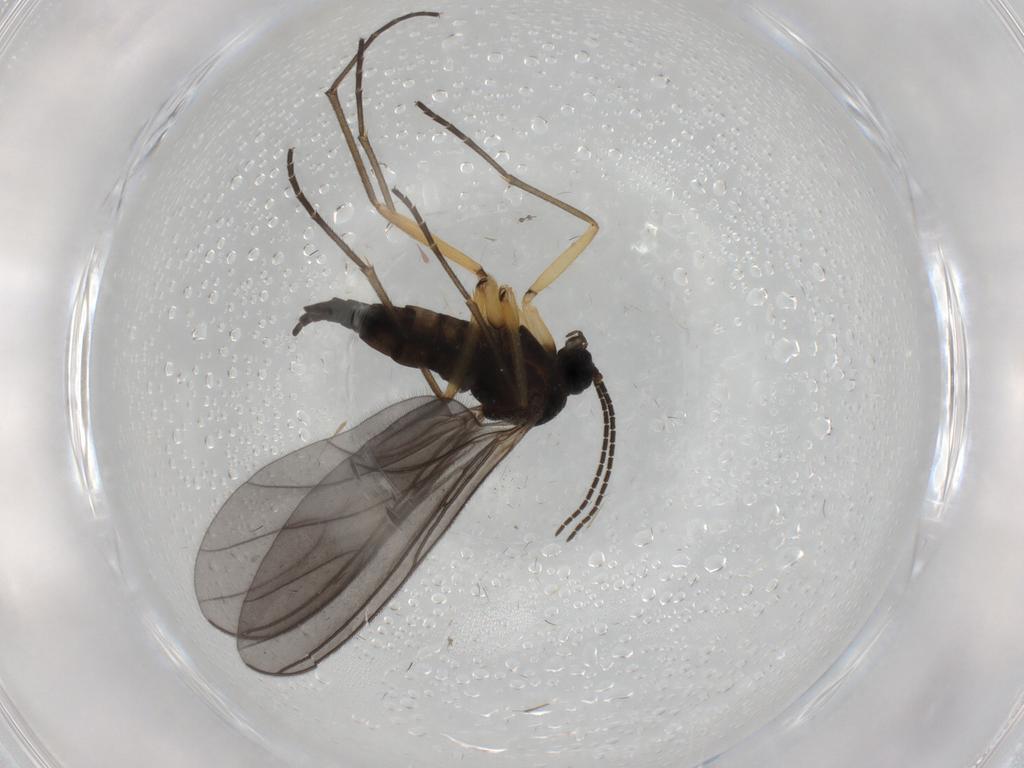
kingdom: Animalia
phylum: Arthropoda
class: Insecta
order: Diptera
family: Sciaridae
